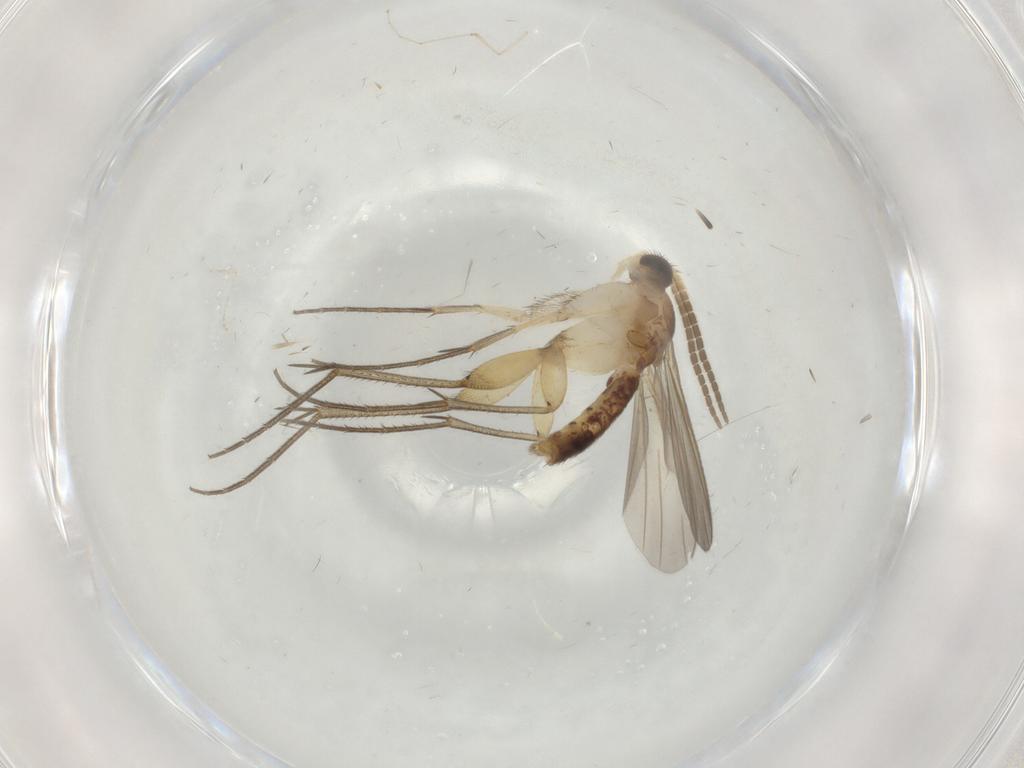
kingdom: Animalia
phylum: Arthropoda
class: Insecta
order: Diptera
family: Mycetophilidae
